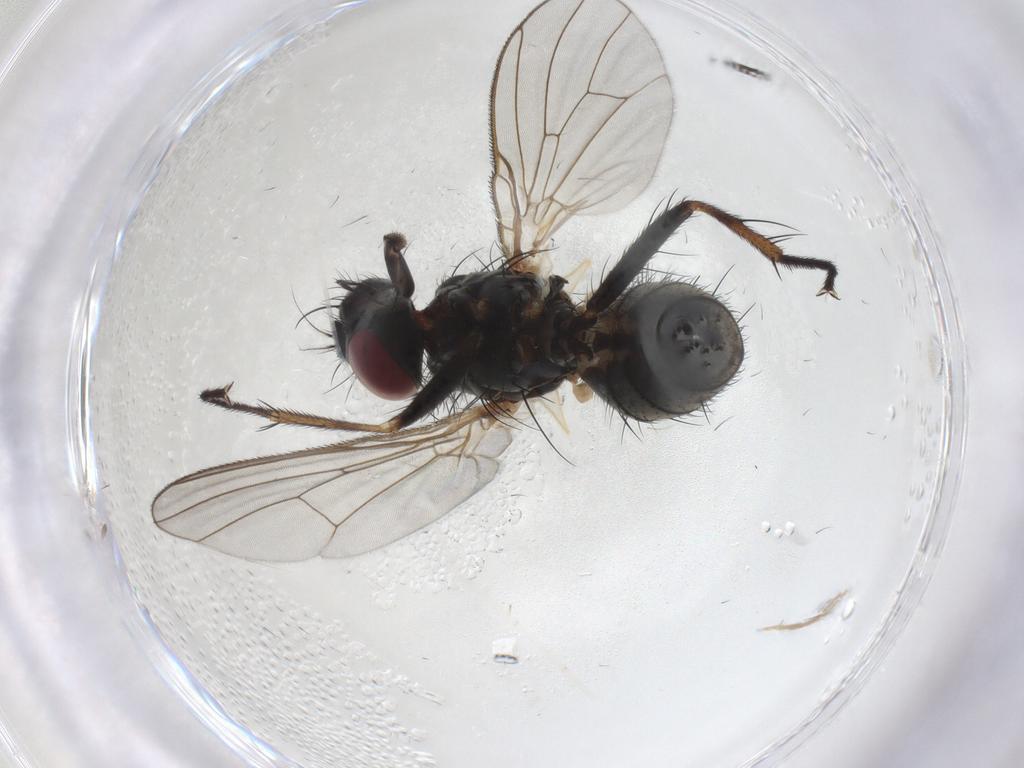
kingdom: Animalia
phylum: Arthropoda
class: Insecta
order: Diptera
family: Muscidae
